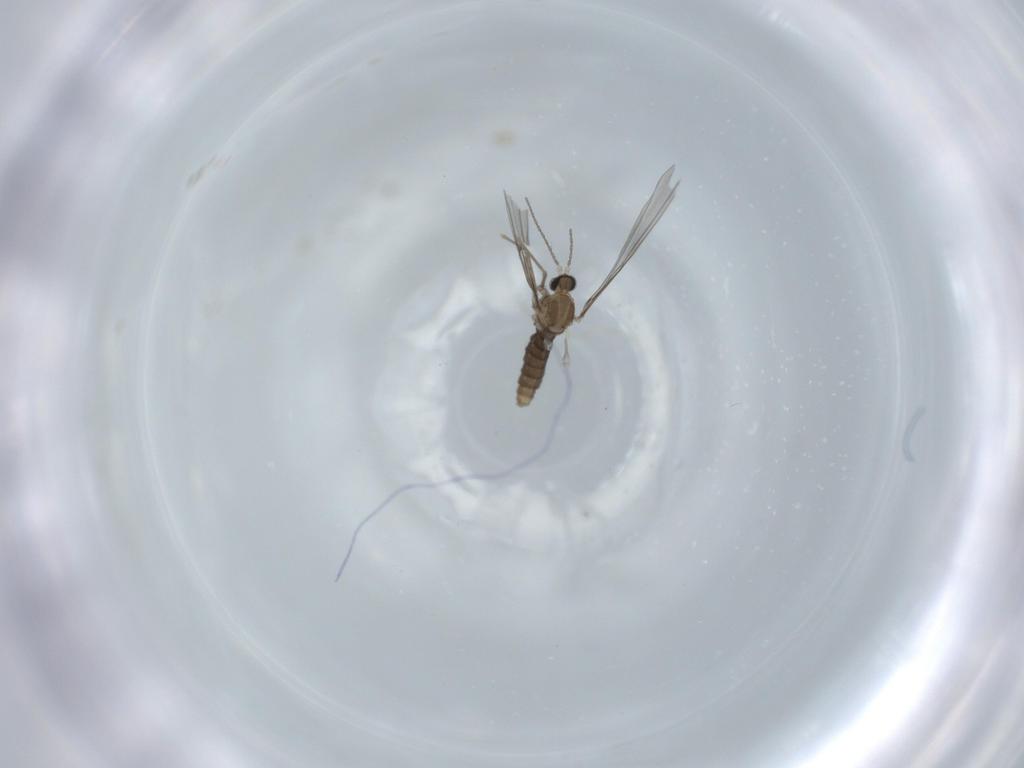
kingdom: Animalia
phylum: Arthropoda
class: Insecta
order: Diptera
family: Cecidomyiidae
